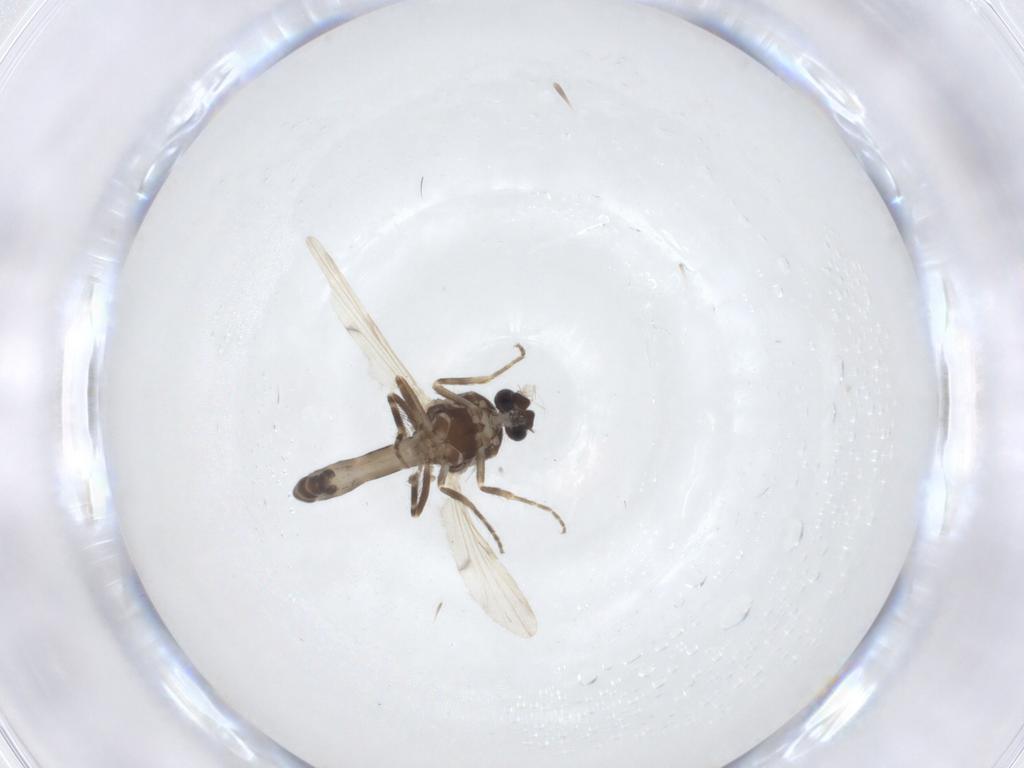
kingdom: Animalia
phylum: Arthropoda
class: Insecta
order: Diptera
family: Ceratopogonidae
